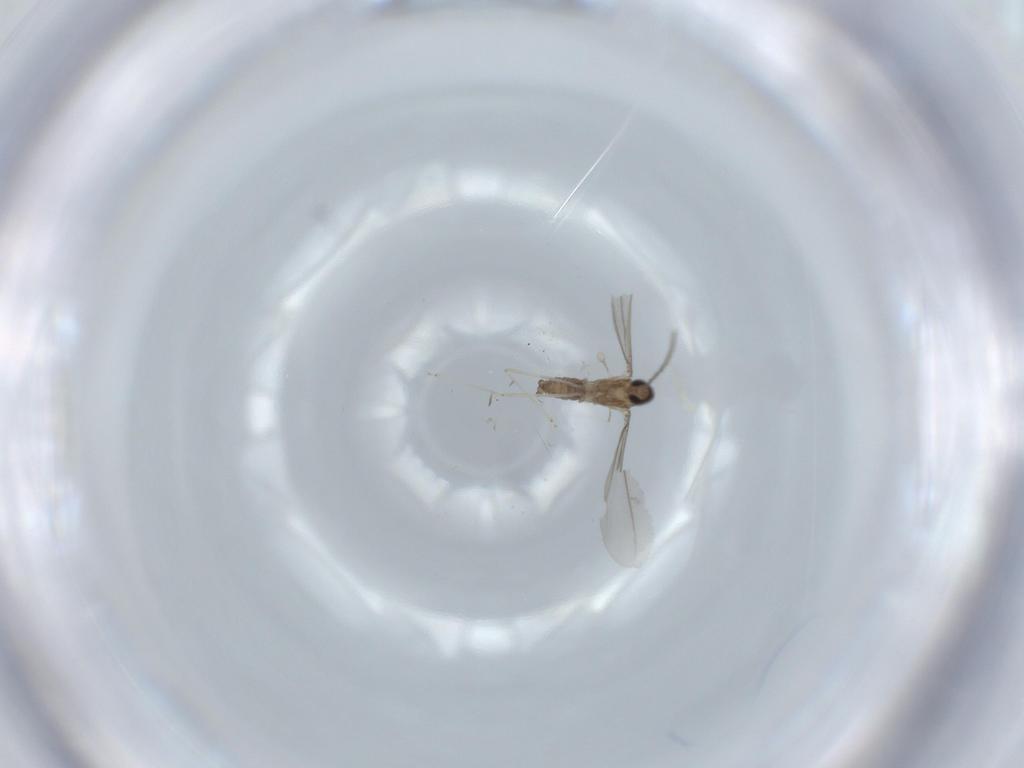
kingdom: Animalia
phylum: Arthropoda
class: Insecta
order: Diptera
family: Cecidomyiidae
